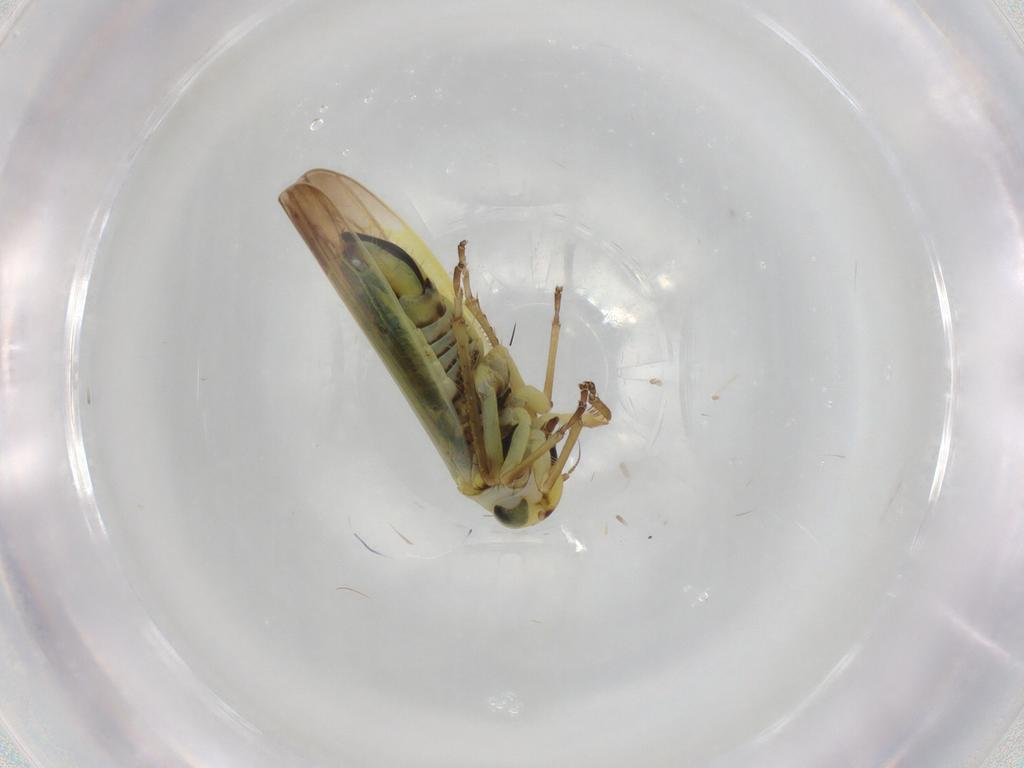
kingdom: Animalia
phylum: Arthropoda
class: Insecta
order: Hemiptera
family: Cicadellidae
